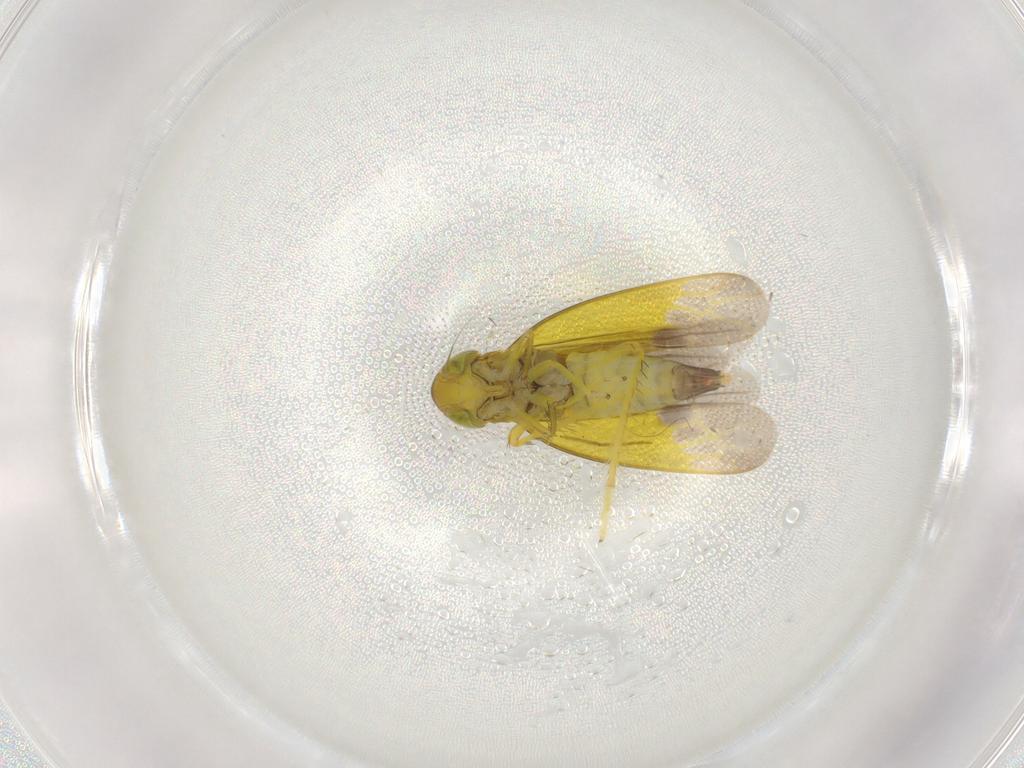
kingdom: Animalia
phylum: Arthropoda
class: Insecta
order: Hemiptera
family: Cicadellidae
